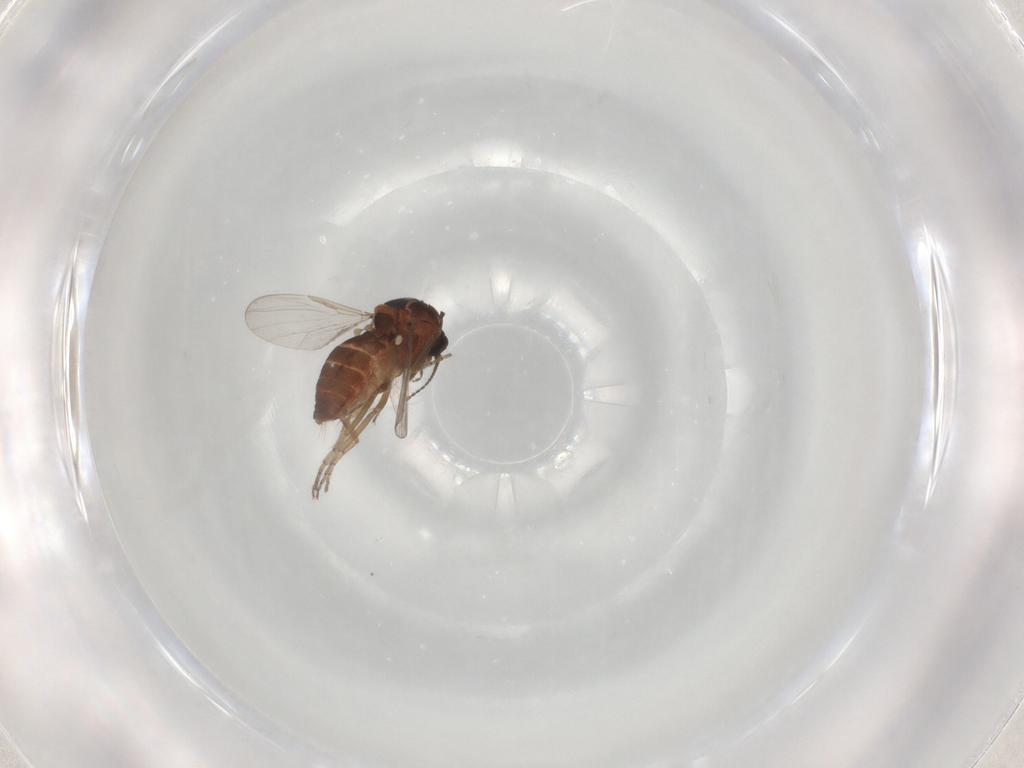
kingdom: Animalia
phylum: Arthropoda
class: Insecta
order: Diptera
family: Ceratopogonidae
